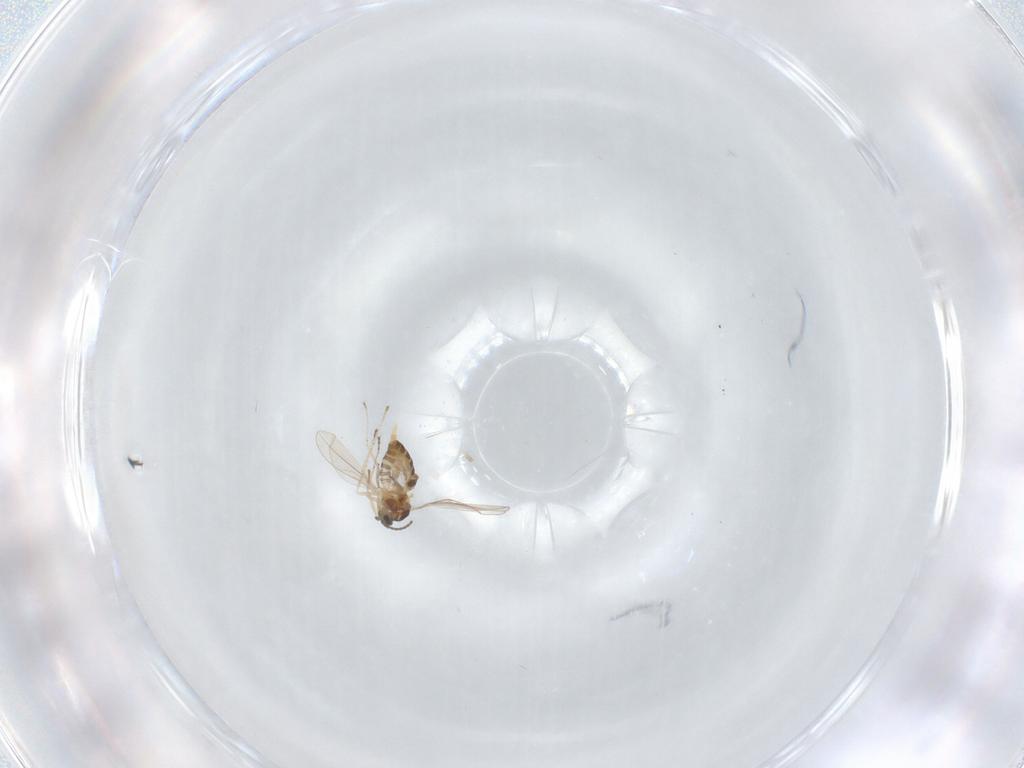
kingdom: Animalia
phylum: Arthropoda
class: Insecta
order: Diptera
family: Cecidomyiidae
